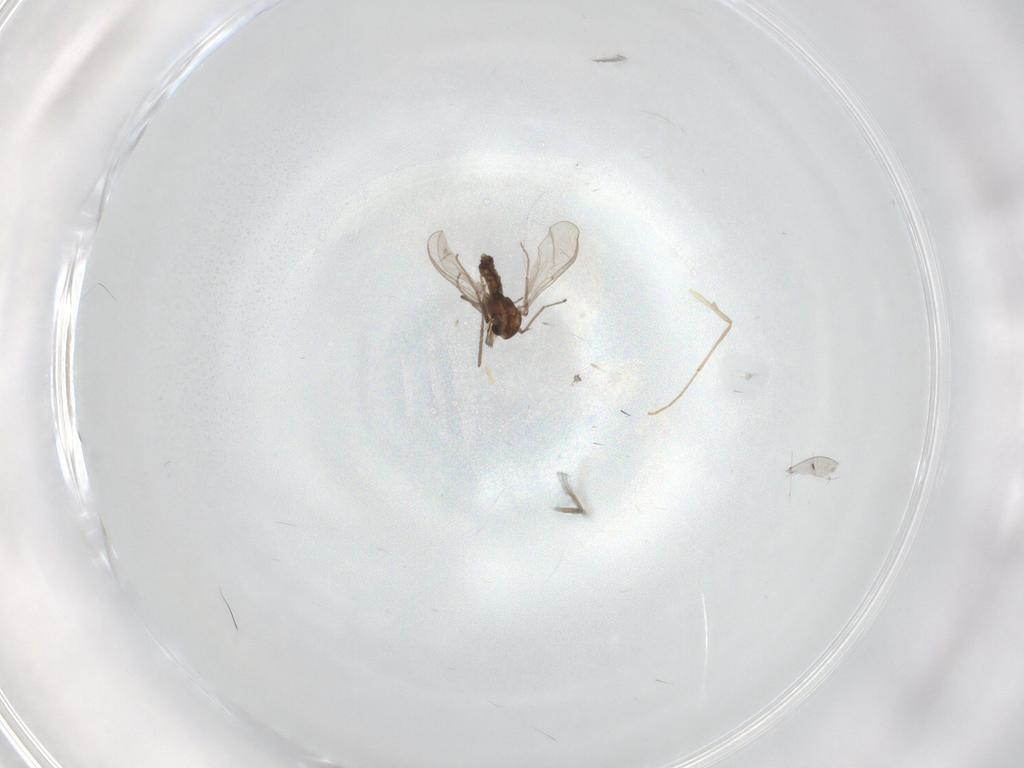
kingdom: Animalia
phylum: Arthropoda
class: Insecta
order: Diptera
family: Chironomidae
